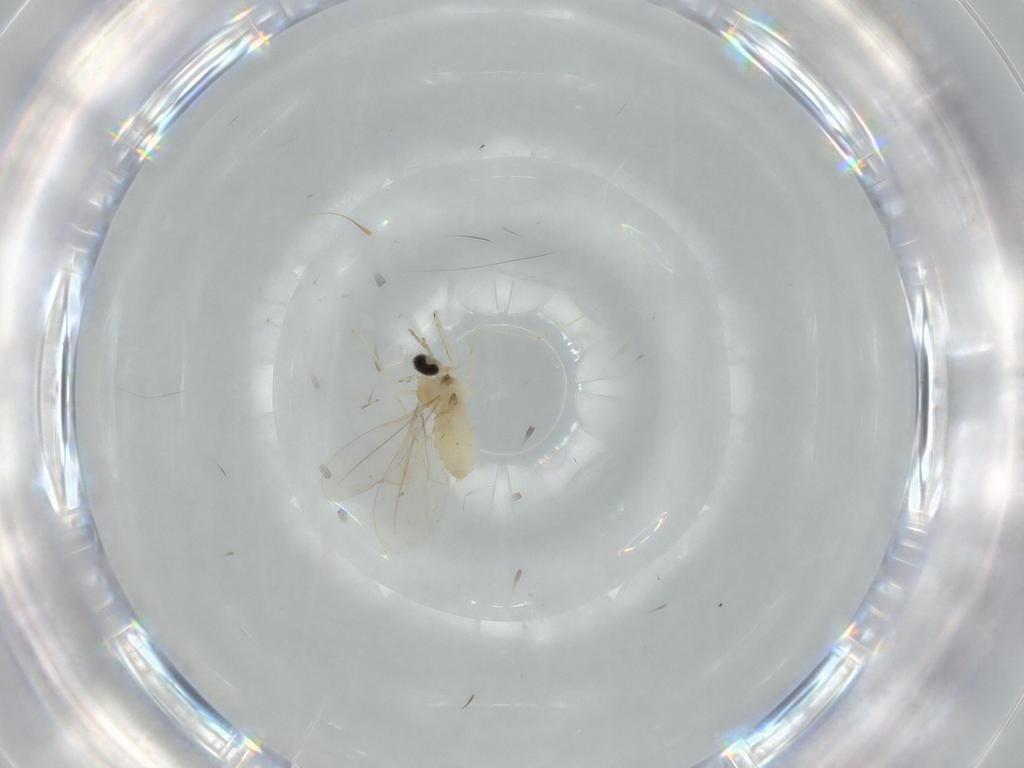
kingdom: Animalia
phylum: Arthropoda
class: Insecta
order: Diptera
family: Cecidomyiidae
